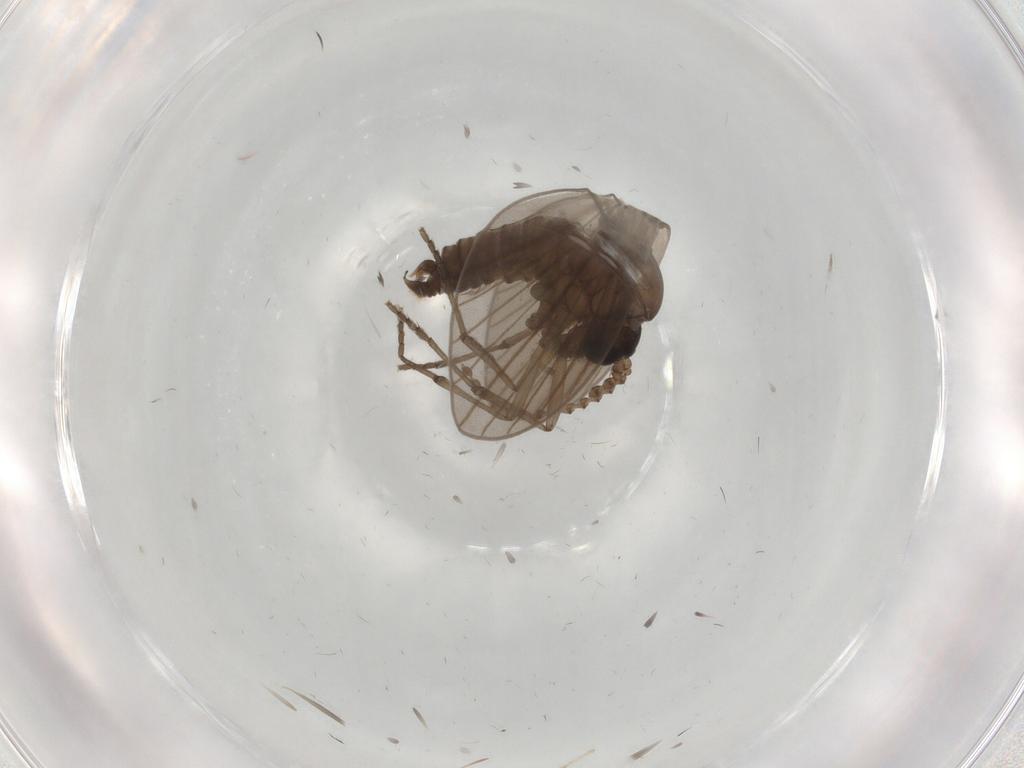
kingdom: Animalia
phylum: Arthropoda
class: Insecta
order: Diptera
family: Cecidomyiidae
